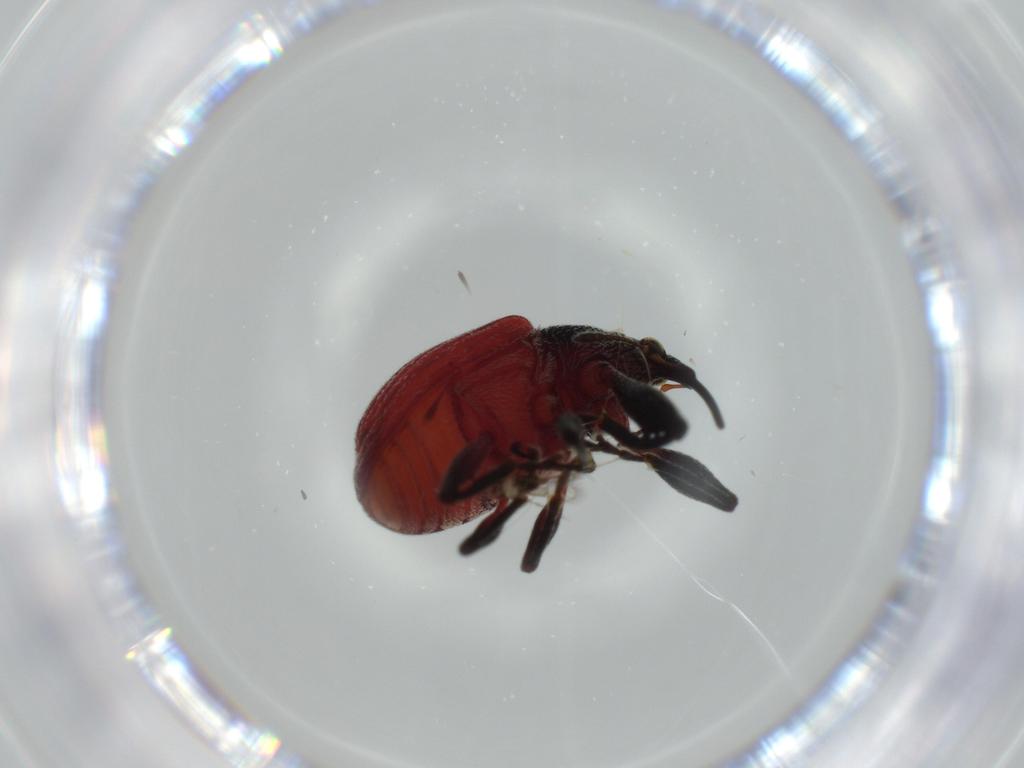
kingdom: Animalia
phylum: Arthropoda
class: Insecta
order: Coleoptera
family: Curculionidae
